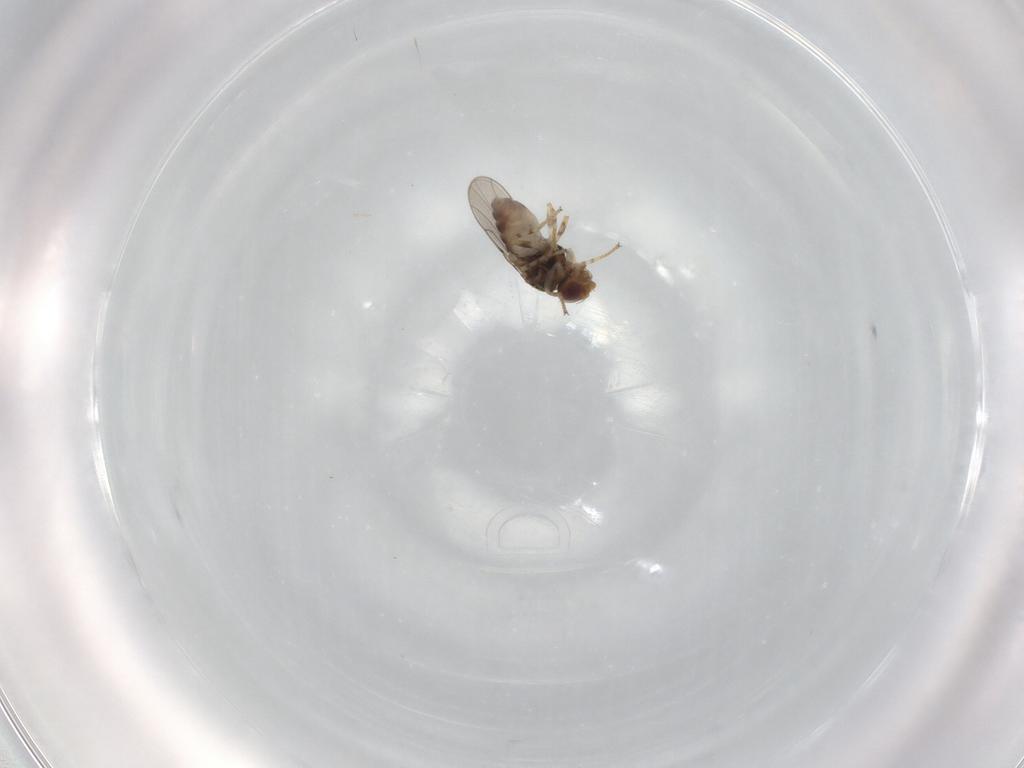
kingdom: Animalia
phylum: Arthropoda
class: Insecta
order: Diptera
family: Chloropidae
